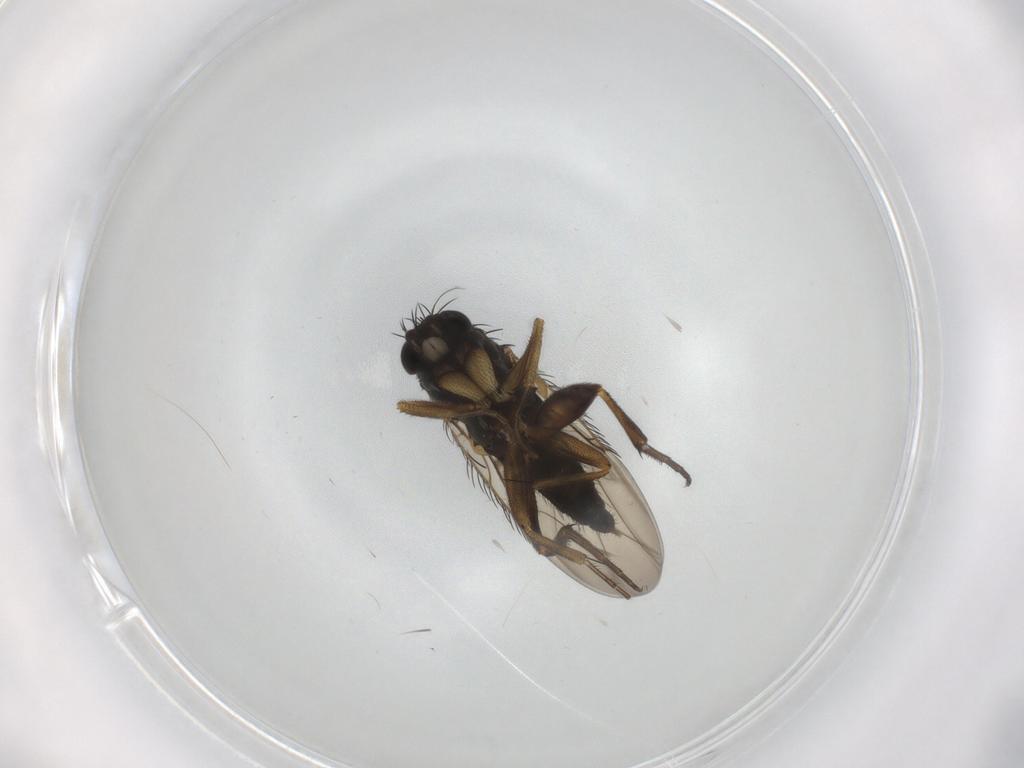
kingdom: Animalia
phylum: Arthropoda
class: Insecta
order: Diptera
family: Phoridae
